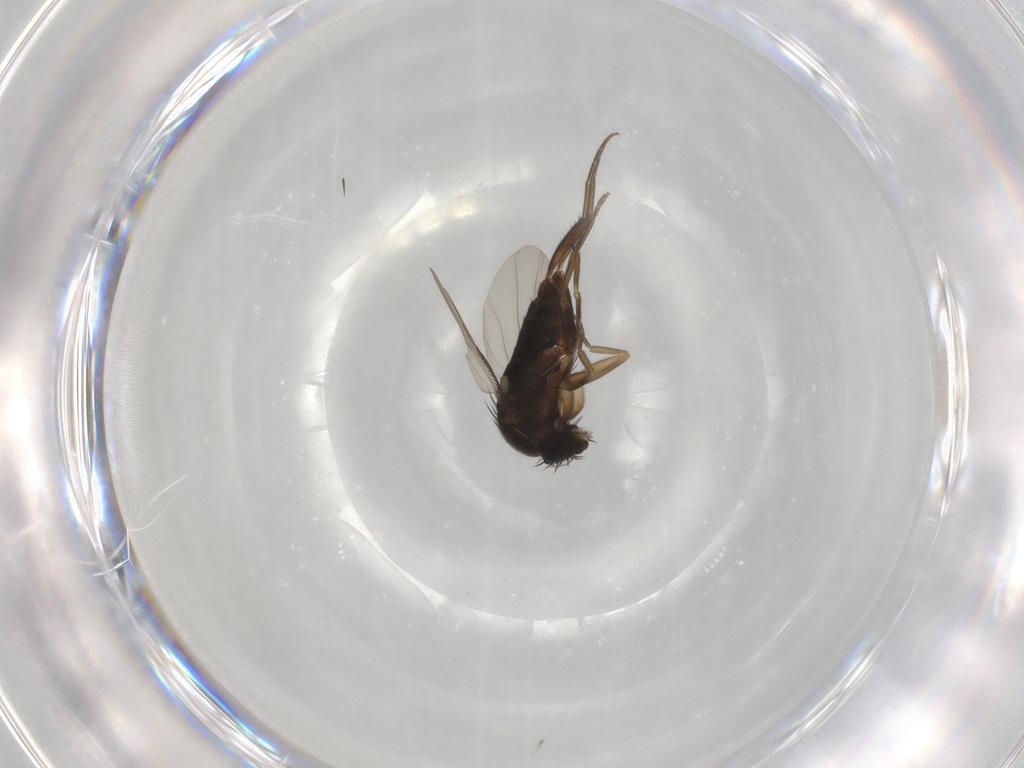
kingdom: Animalia
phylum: Arthropoda
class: Insecta
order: Diptera
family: Phoridae
